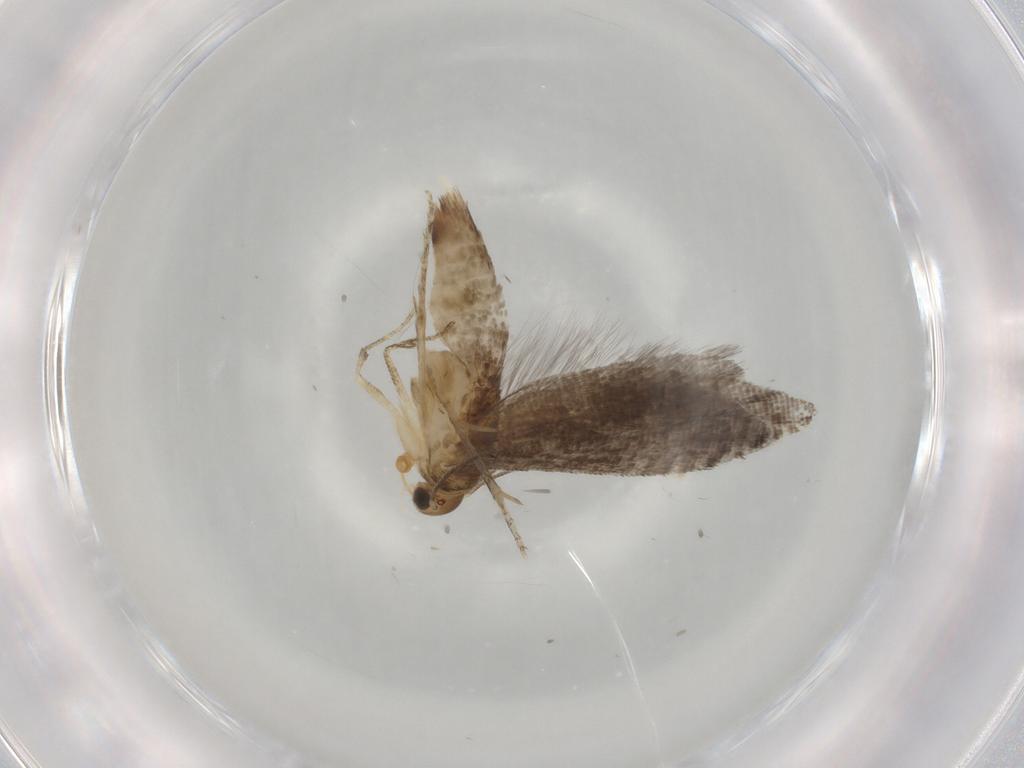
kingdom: Animalia
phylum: Arthropoda
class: Insecta
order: Lepidoptera
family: Glyphipterigidae
